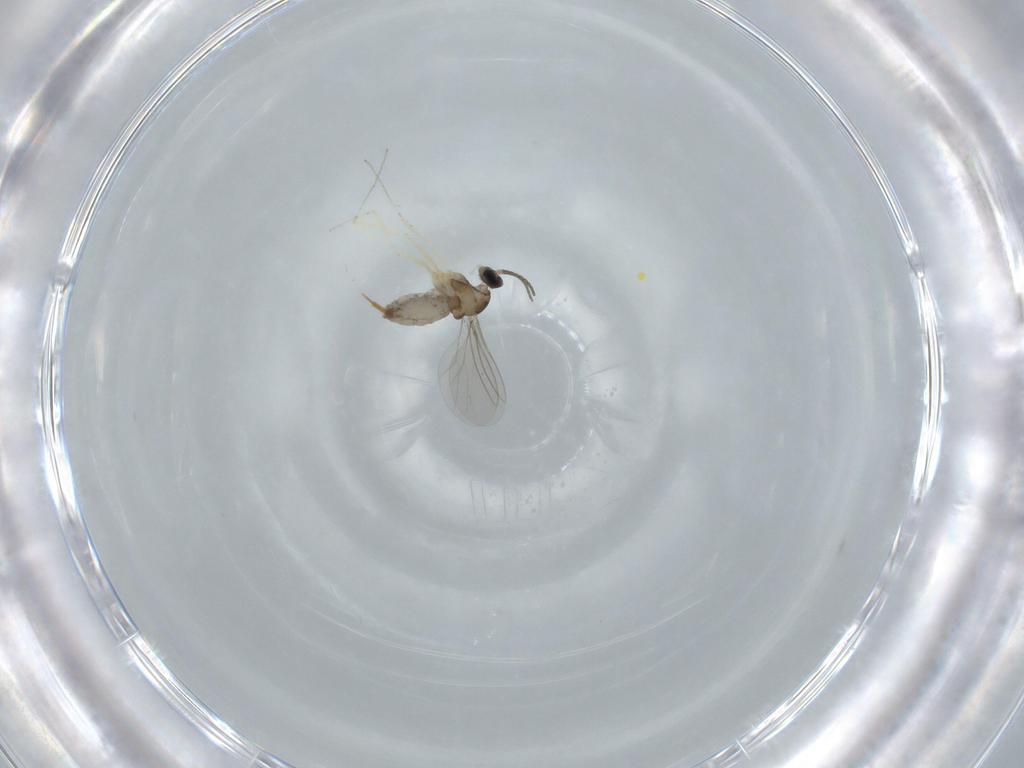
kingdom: Animalia
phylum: Arthropoda
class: Insecta
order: Diptera
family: Cecidomyiidae
